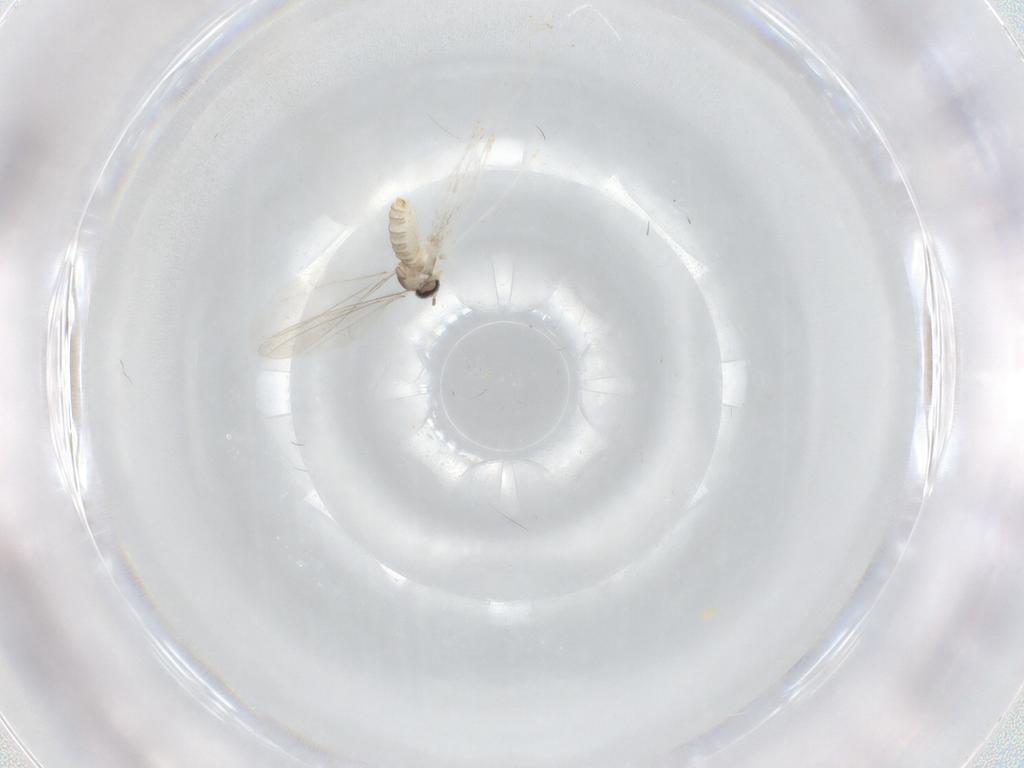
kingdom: Animalia
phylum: Arthropoda
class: Insecta
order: Diptera
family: Cecidomyiidae
